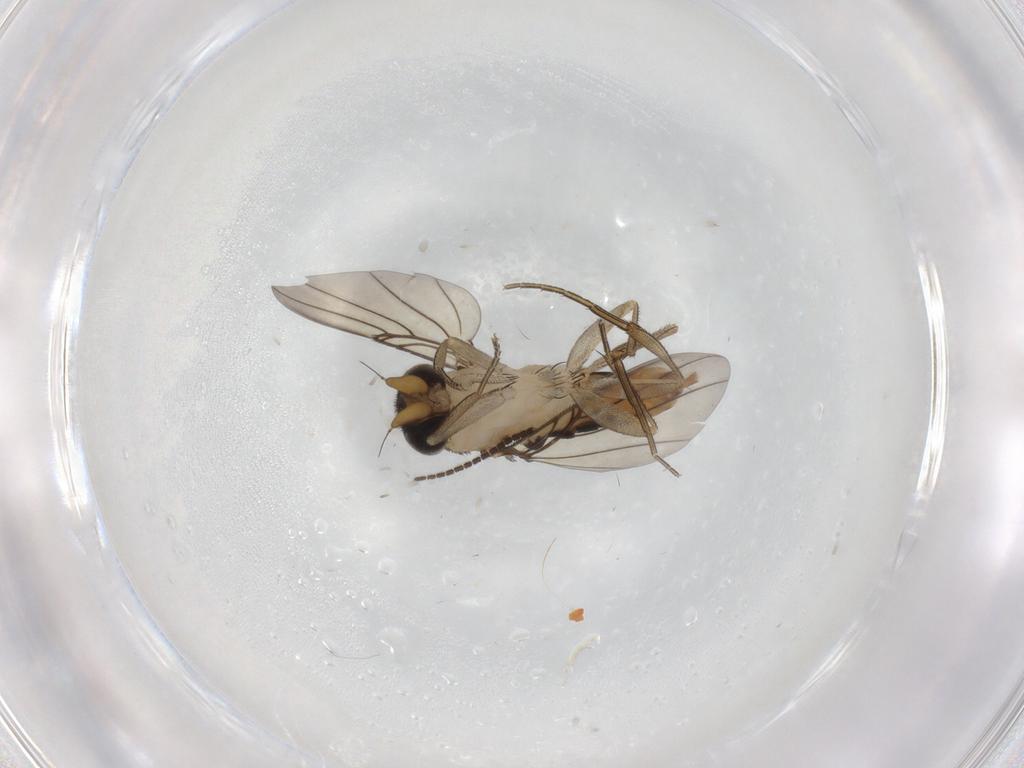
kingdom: Animalia
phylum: Arthropoda
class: Insecta
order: Diptera
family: Phoridae
